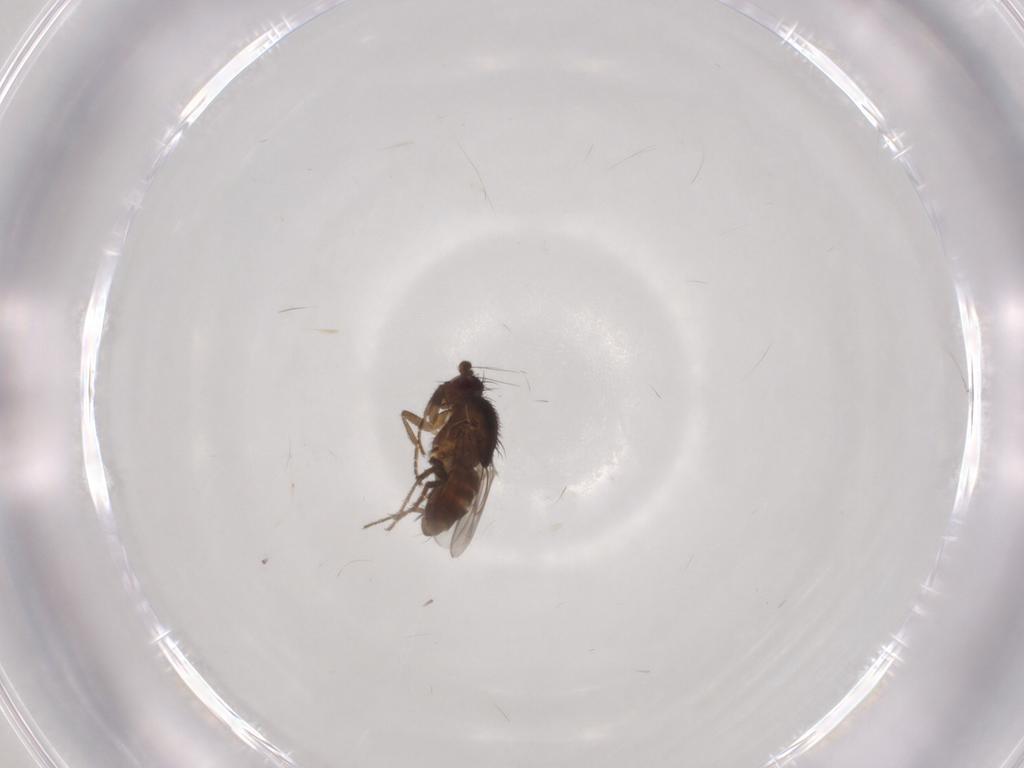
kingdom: Animalia
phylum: Arthropoda
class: Insecta
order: Diptera
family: Sphaeroceridae
